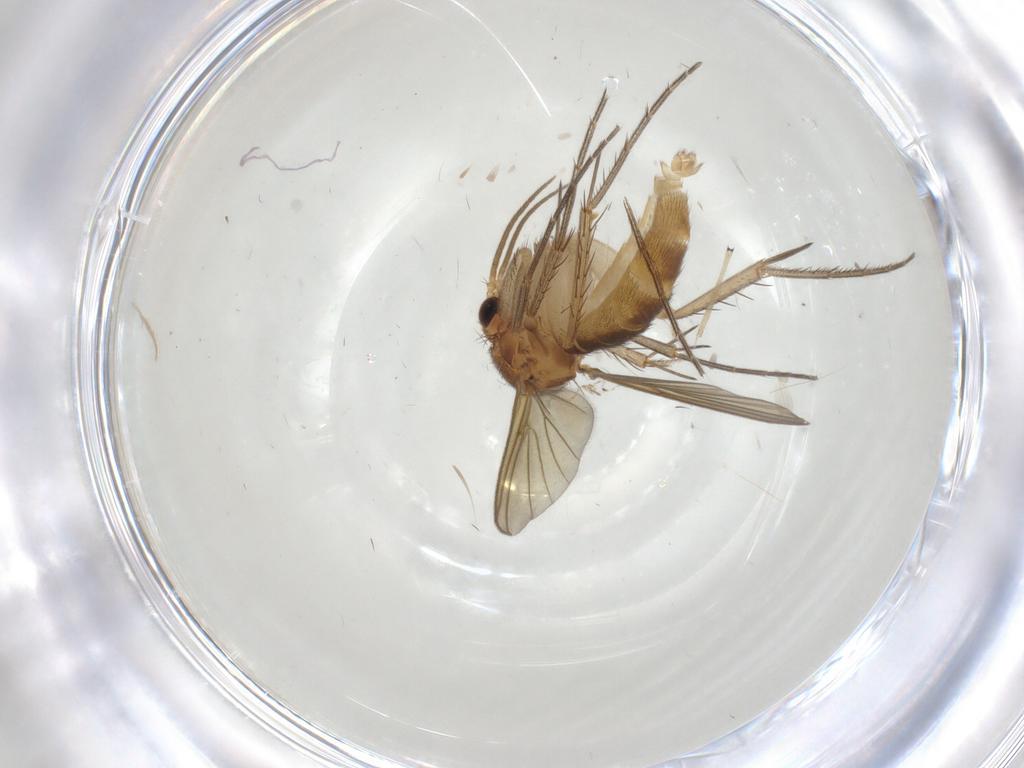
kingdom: Animalia
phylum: Arthropoda
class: Insecta
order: Diptera
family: Mycetophilidae
